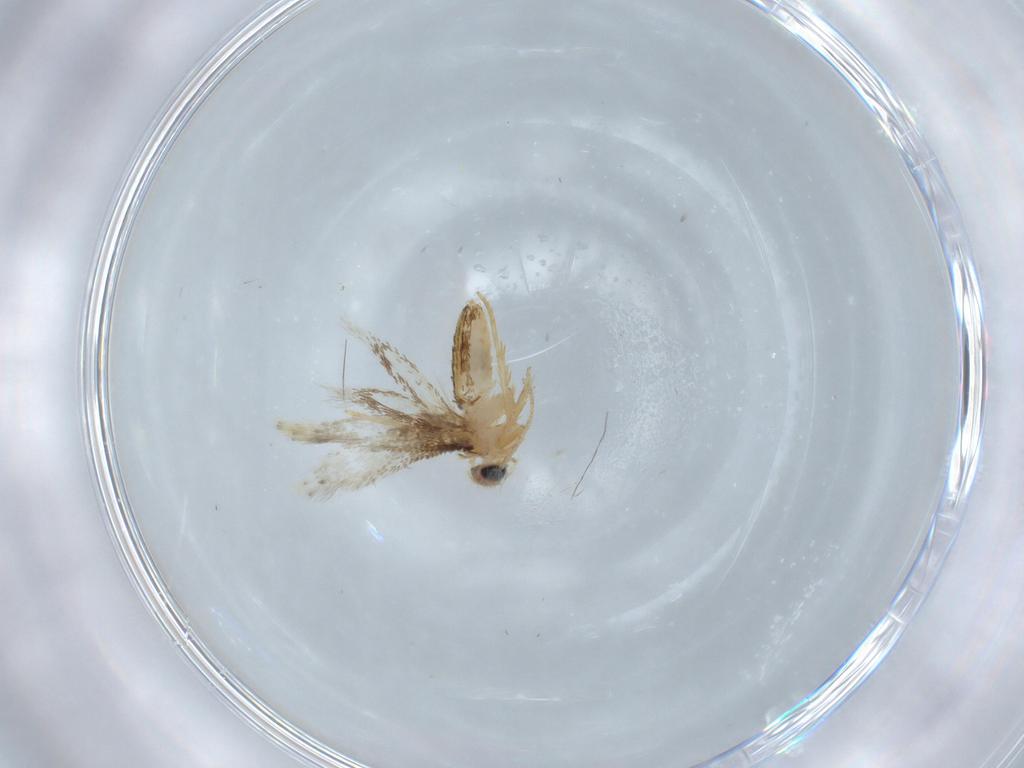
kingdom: Animalia
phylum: Arthropoda
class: Insecta
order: Lepidoptera
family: Nepticulidae
